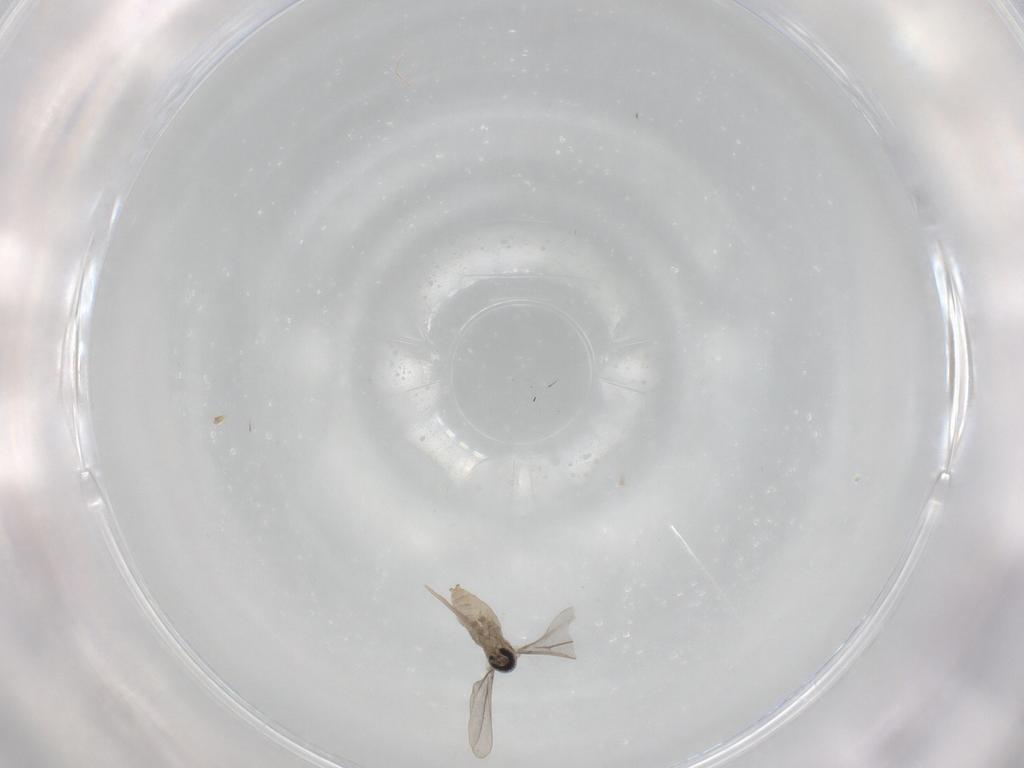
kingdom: Animalia
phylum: Arthropoda
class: Insecta
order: Diptera
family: Cecidomyiidae
